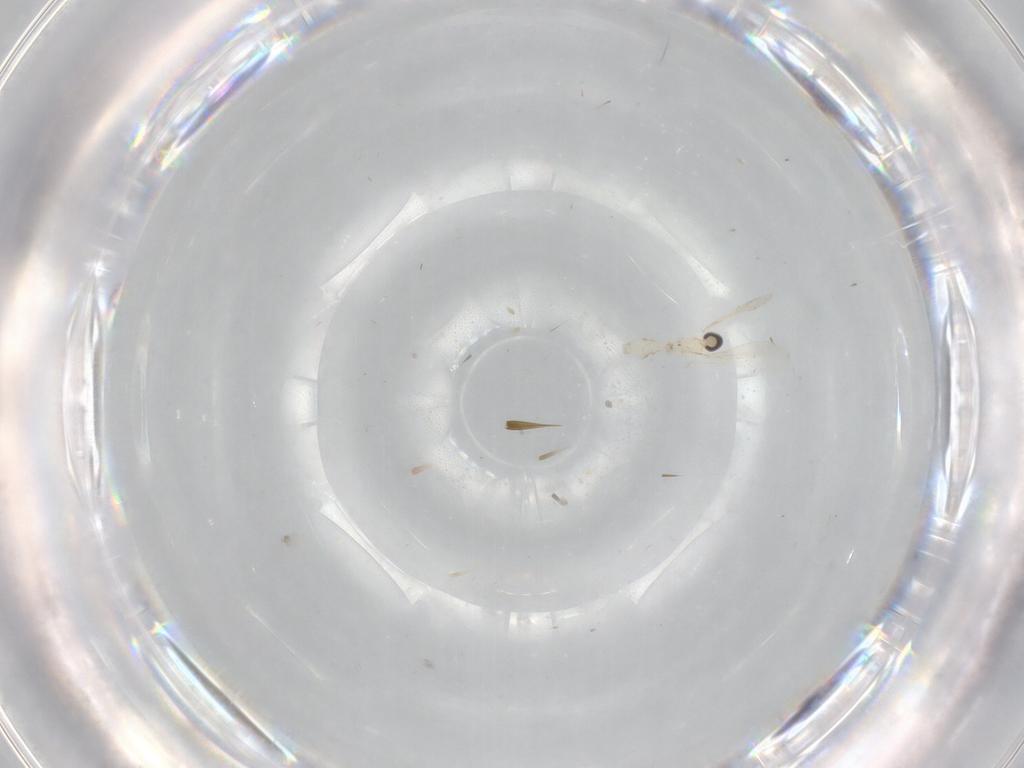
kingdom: Animalia
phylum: Arthropoda
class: Insecta
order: Diptera
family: Cecidomyiidae
